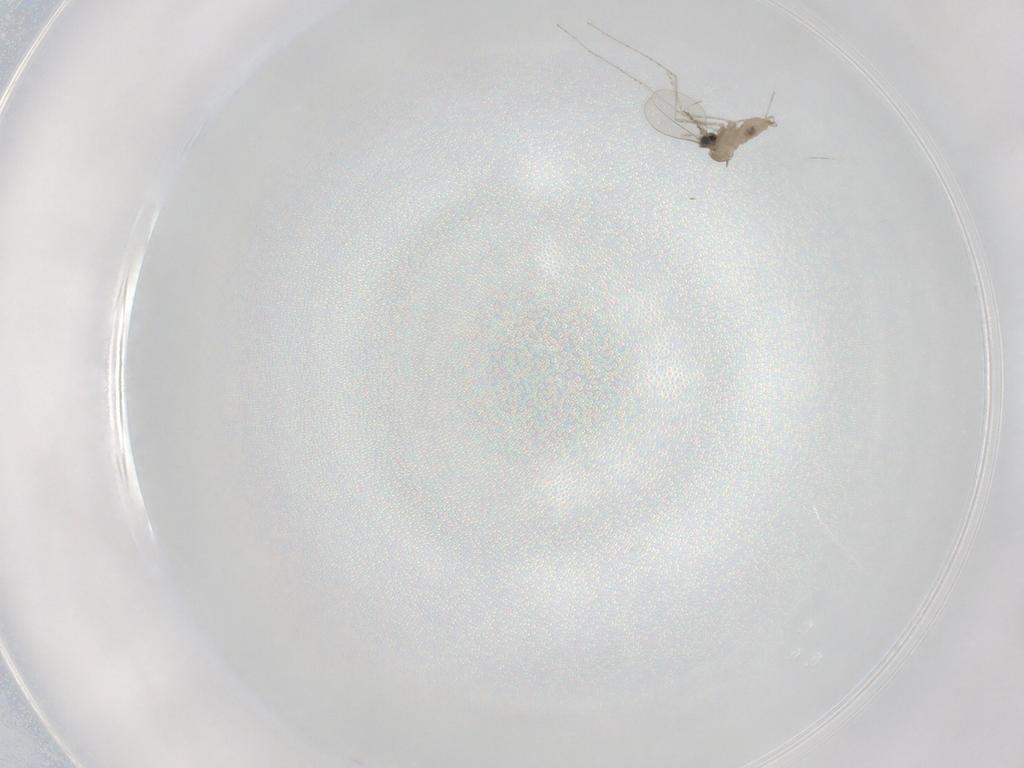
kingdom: Animalia
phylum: Arthropoda
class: Insecta
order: Diptera
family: Cecidomyiidae
